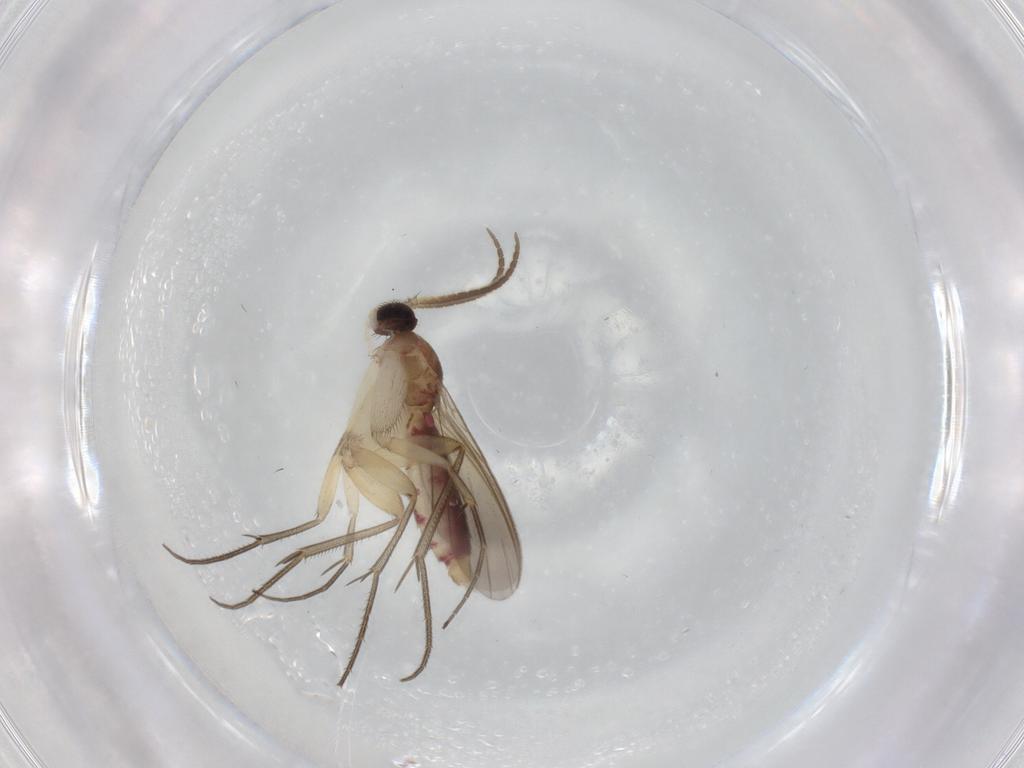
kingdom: Animalia
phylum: Arthropoda
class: Insecta
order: Diptera
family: Mycetophilidae
